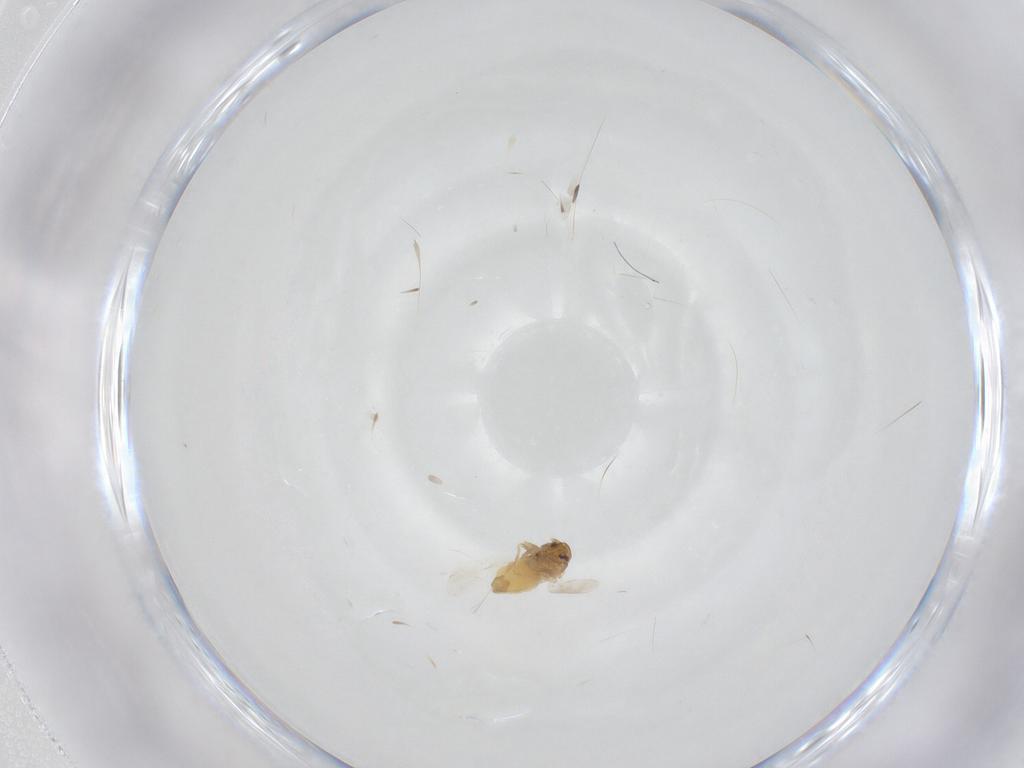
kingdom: Animalia
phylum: Arthropoda
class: Insecta
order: Hemiptera
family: Aleyrodidae
